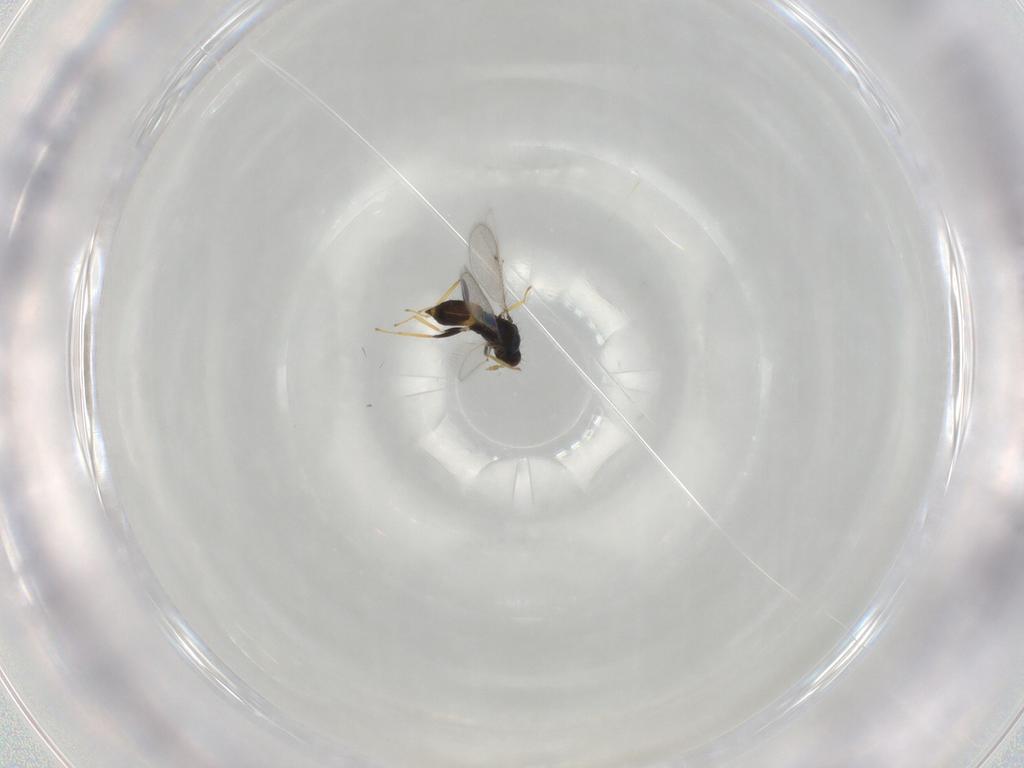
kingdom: Animalia
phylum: Arthropoda
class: Insecta
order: Hymenoptera
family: Eulophidae
